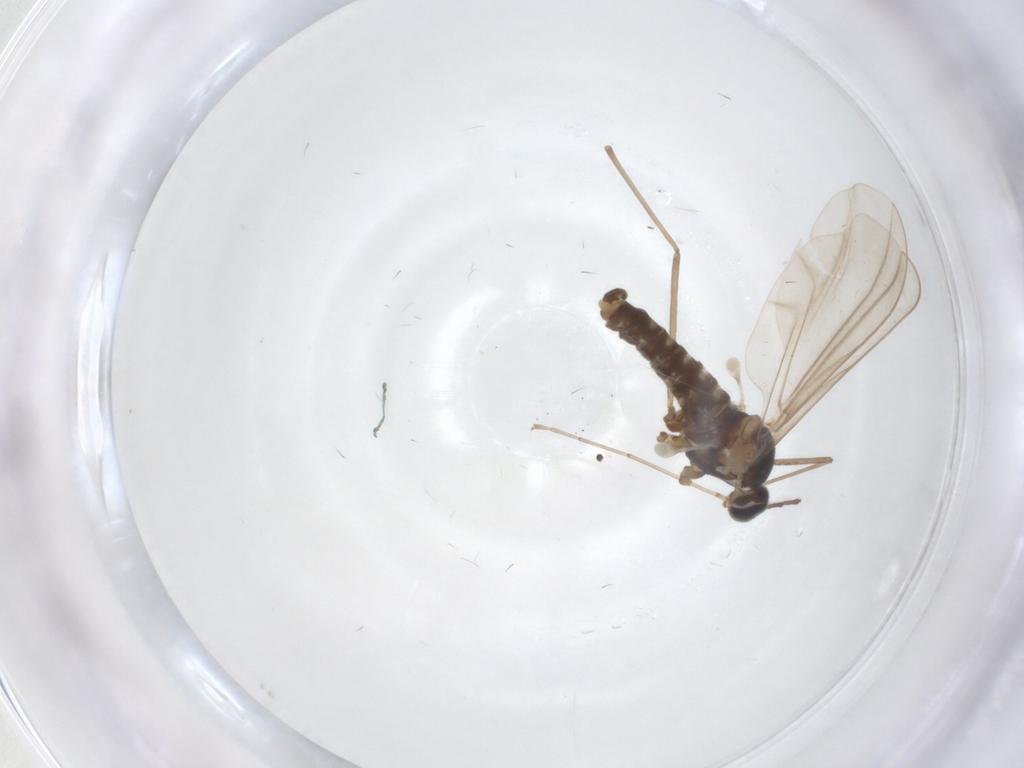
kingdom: Animalia
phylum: Arthropoda
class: Insecta
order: Diptera
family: Cecidomyiidae
